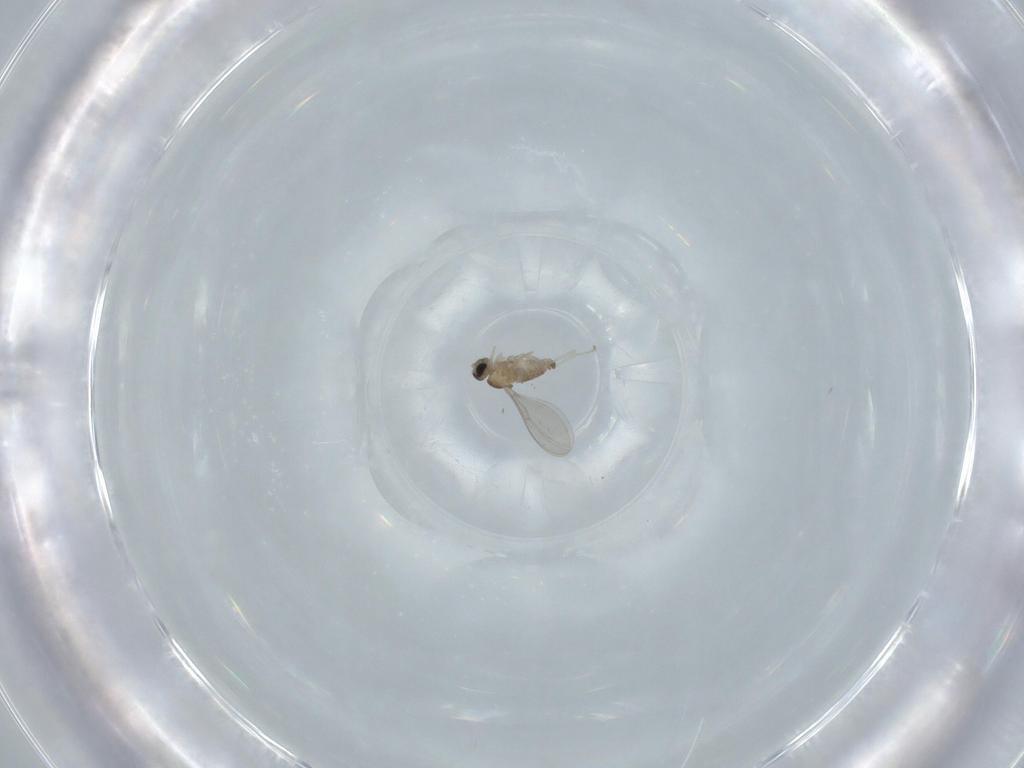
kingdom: Animalia
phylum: Arthropoda
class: Insecta
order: Diptera
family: Cecidomyiidae
